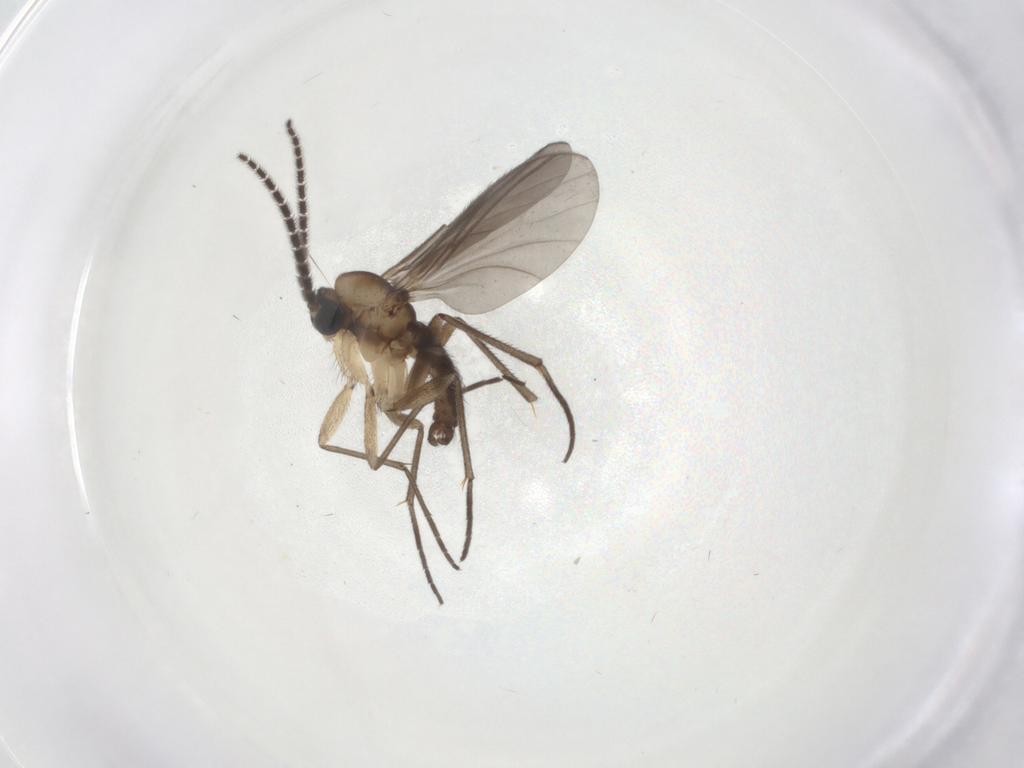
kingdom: Animalia
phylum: Arthropoda
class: Insecta
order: Diptera
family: Sciaridae
